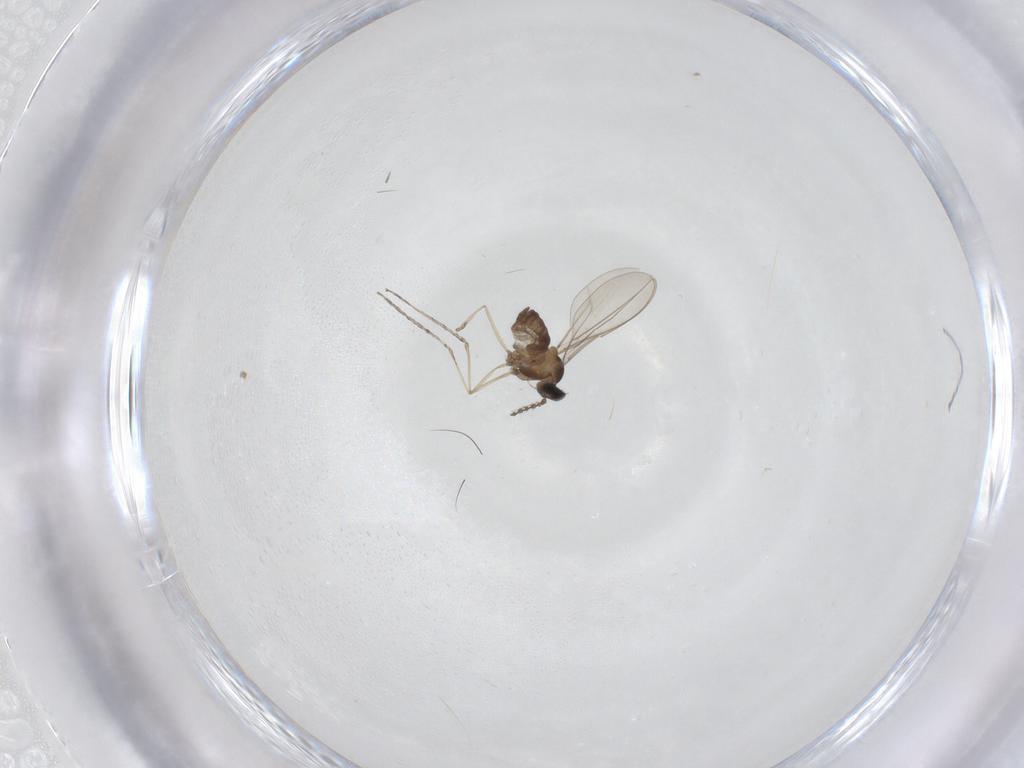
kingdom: Animalia
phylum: Arthropoda
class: Insecta
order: Diptera
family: Cecidomyiidae
